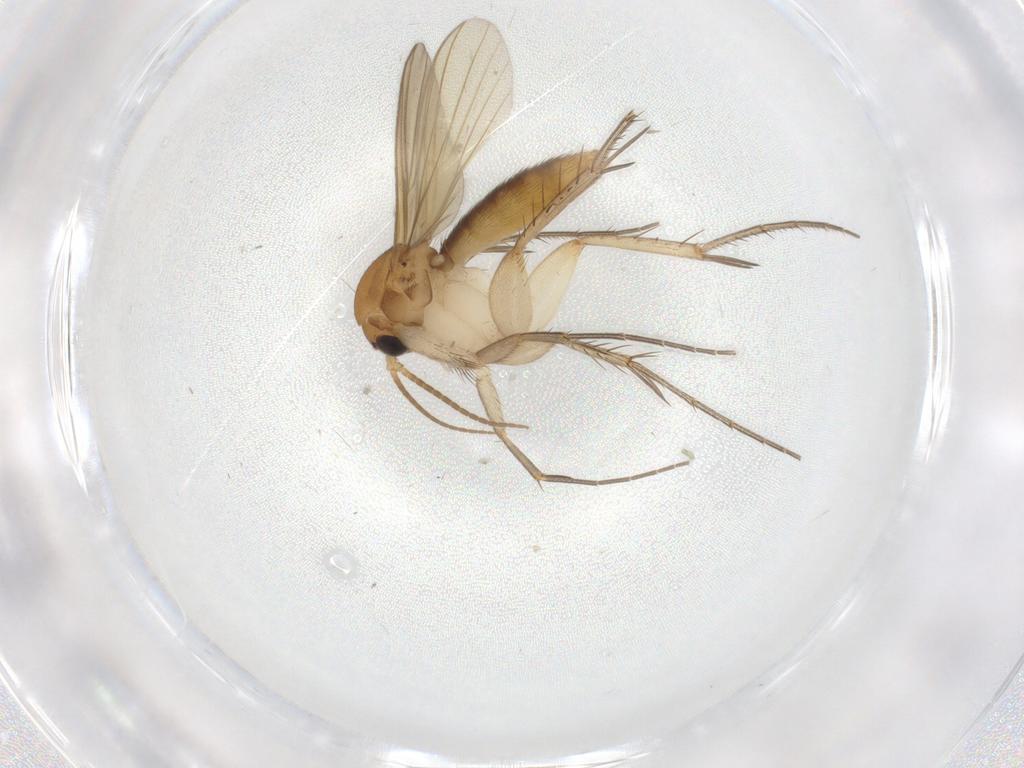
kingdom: Animalia
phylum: Arthropoda
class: Insecta
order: Diptera
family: Mycetophilidae
